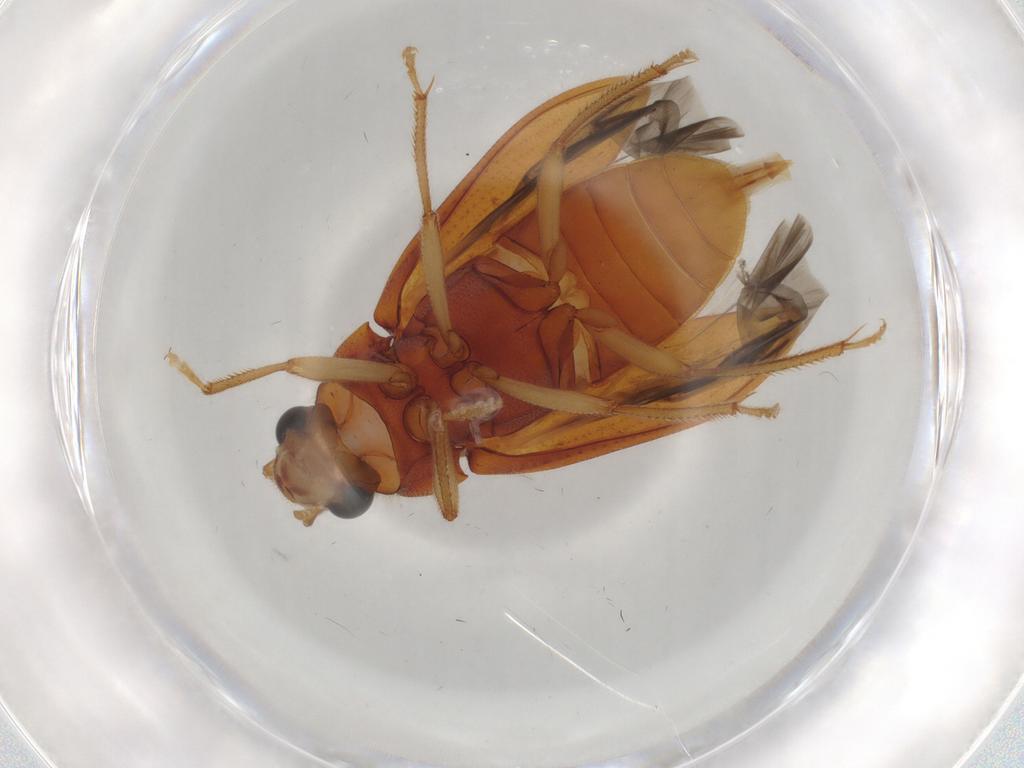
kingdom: Animalia
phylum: Arthropoda
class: Insecta
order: Coleoptera
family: Ptilodactylidae
